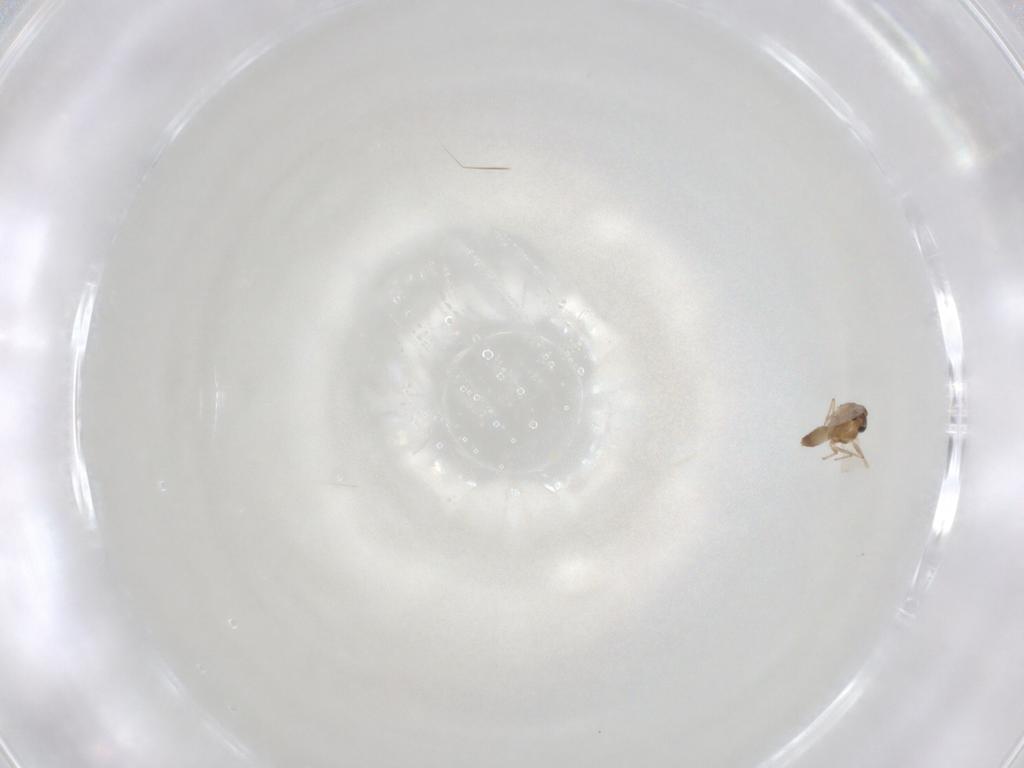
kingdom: Animalia
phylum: Arthropoda
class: Insecta
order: Diptera
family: Chironomidae
